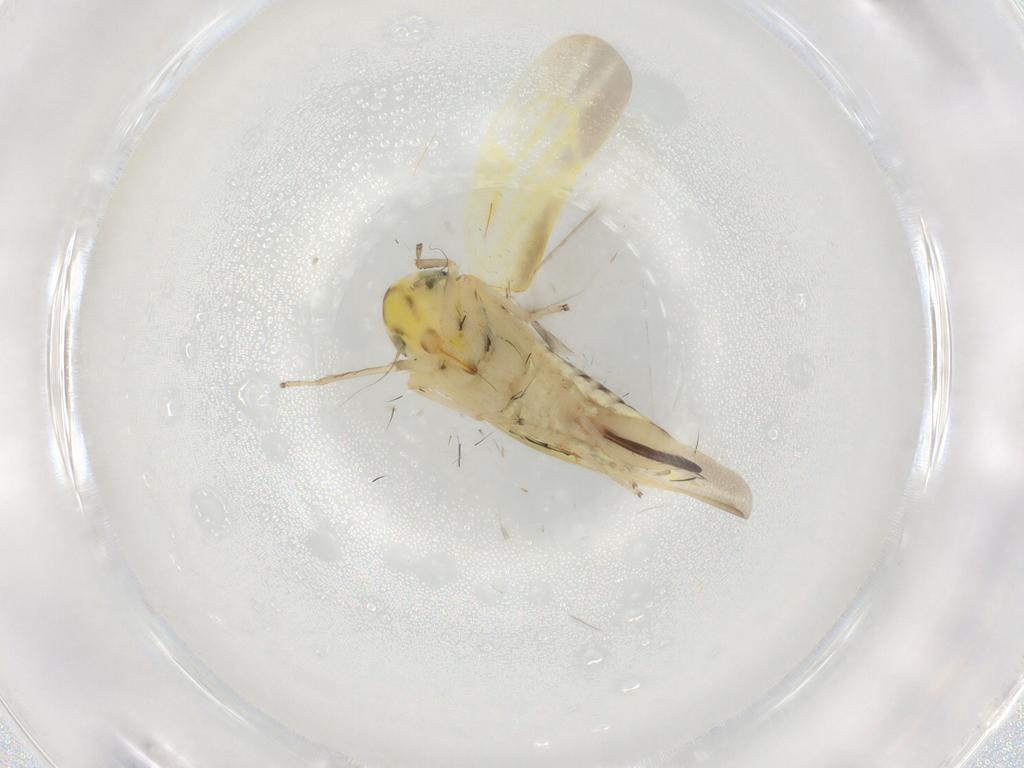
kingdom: Animalia
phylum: Arthropoda
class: Insecta
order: Hemiptera
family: Cicadellidae
